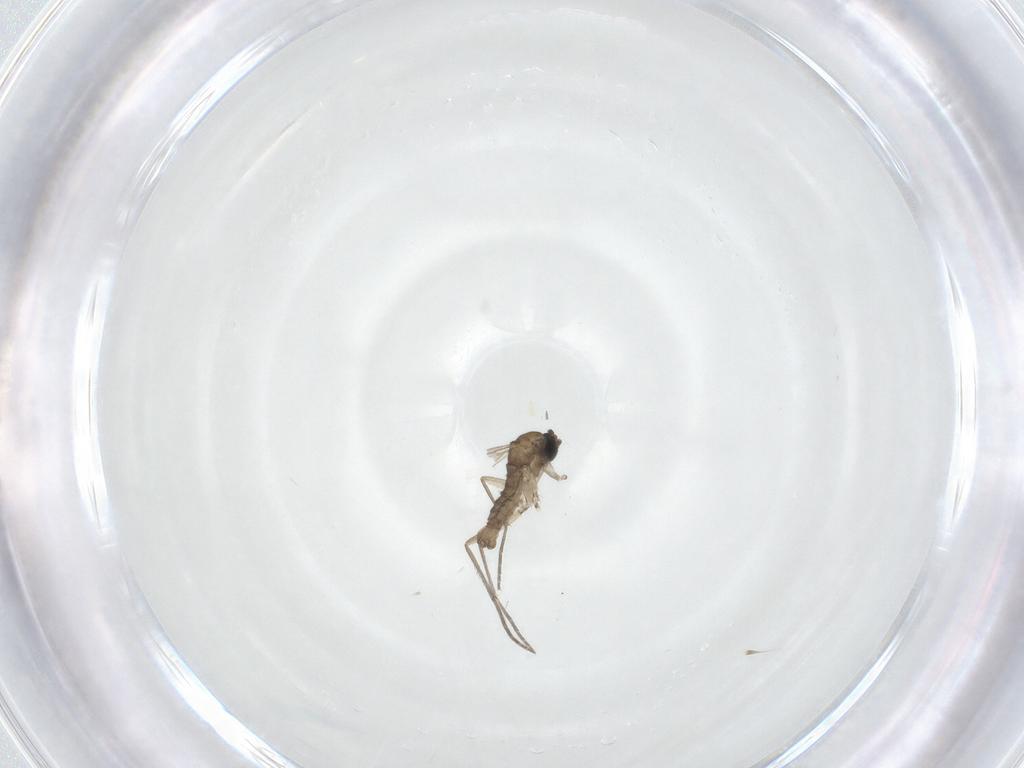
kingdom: Animalia
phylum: Arthropoda
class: Insecta
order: Diptera
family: Sciaridae
